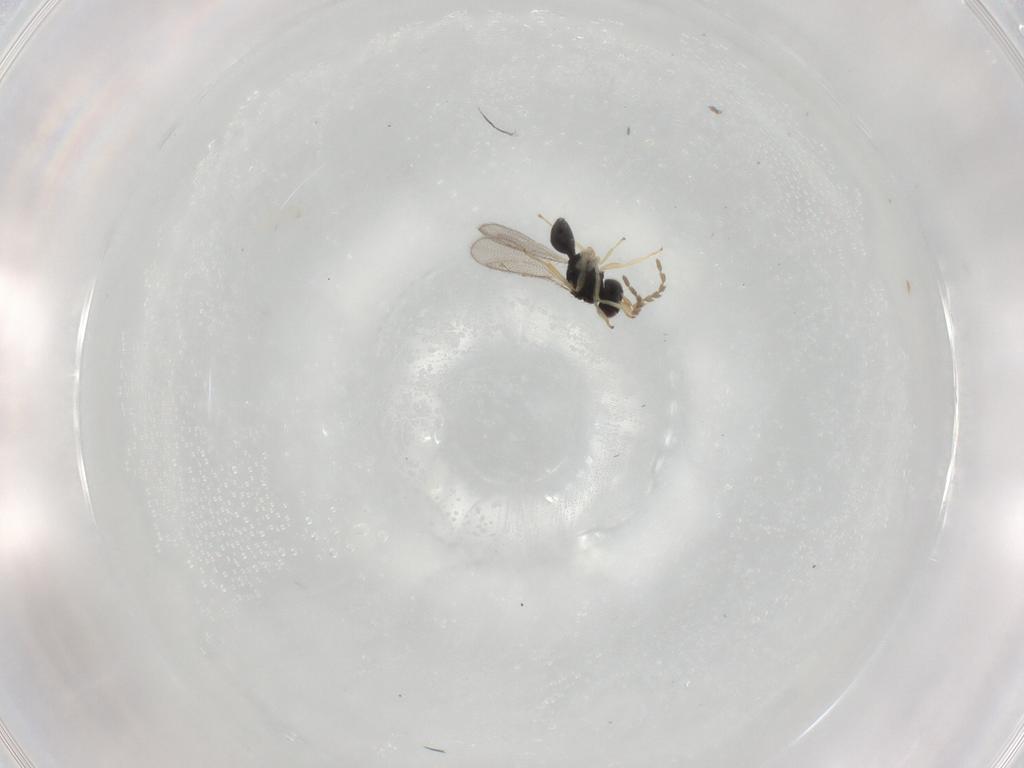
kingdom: Animalia
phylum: Arthropoda
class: Insecta
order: Hymenoptera
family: Eulophidae
